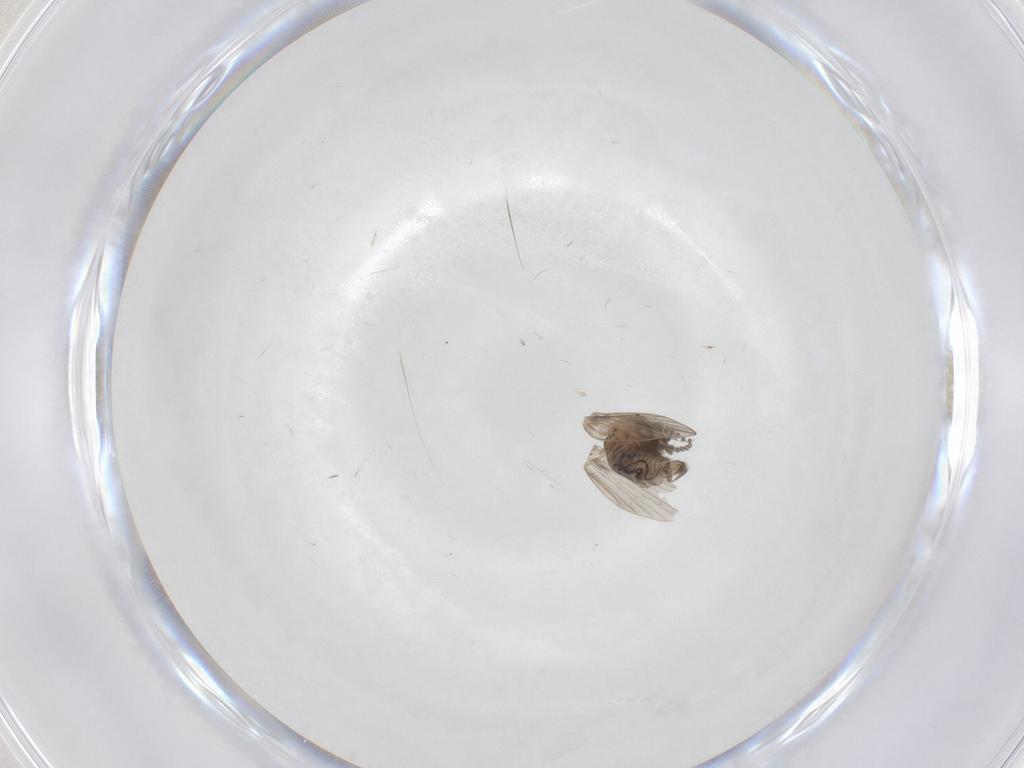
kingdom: Animalia
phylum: Arthropoda
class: Insecta
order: Diptera
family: Psychodidae
